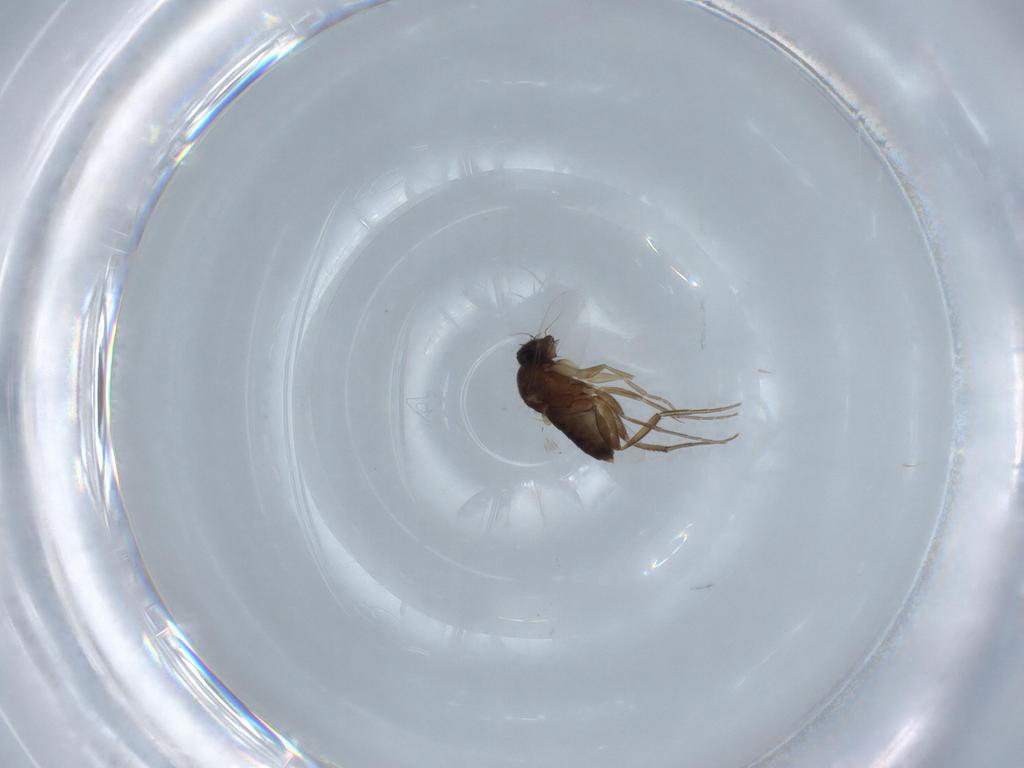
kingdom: Animalia
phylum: Arthropoda
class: Insecta
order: Diptera
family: Phoridae
